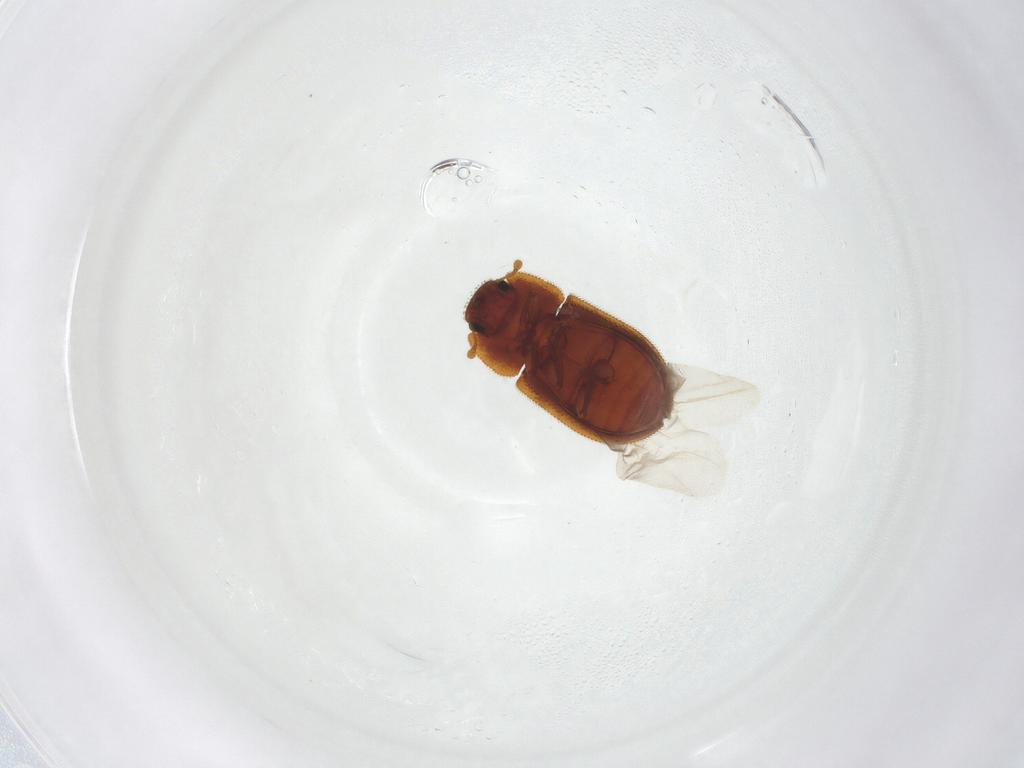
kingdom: Animalia
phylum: Arthropoda
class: Insecta
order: Coleoptera
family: Zopheridae
